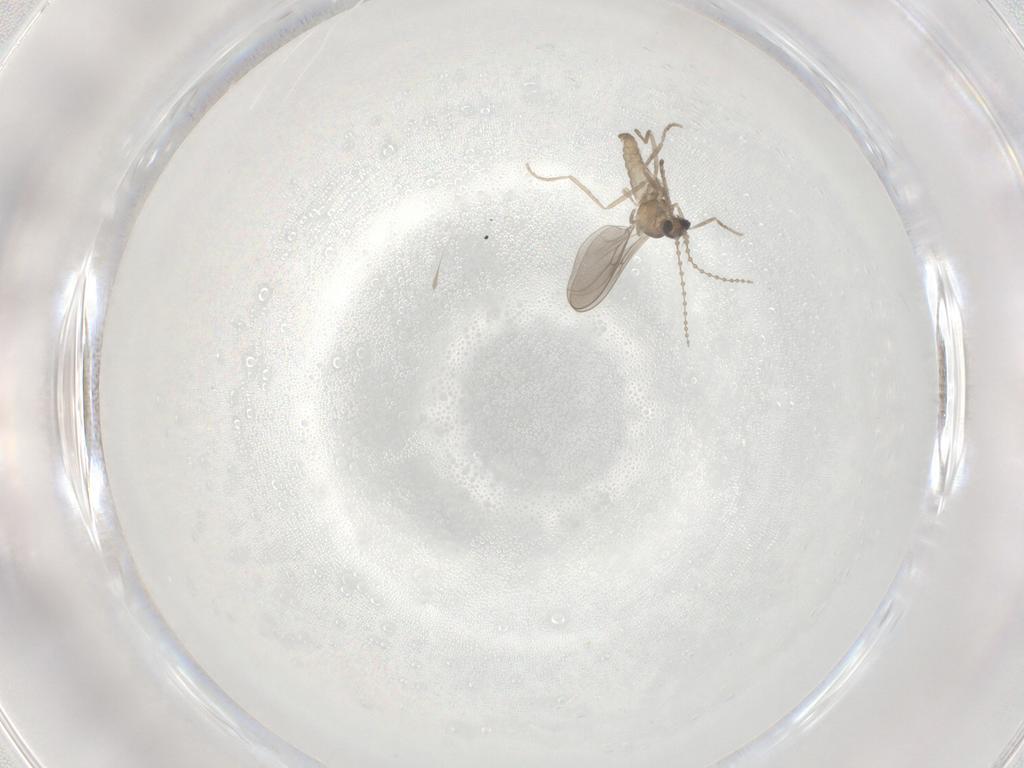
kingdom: Animalia
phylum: Arthropoda
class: Insecta
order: Diptera
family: Cecidomyiidae
